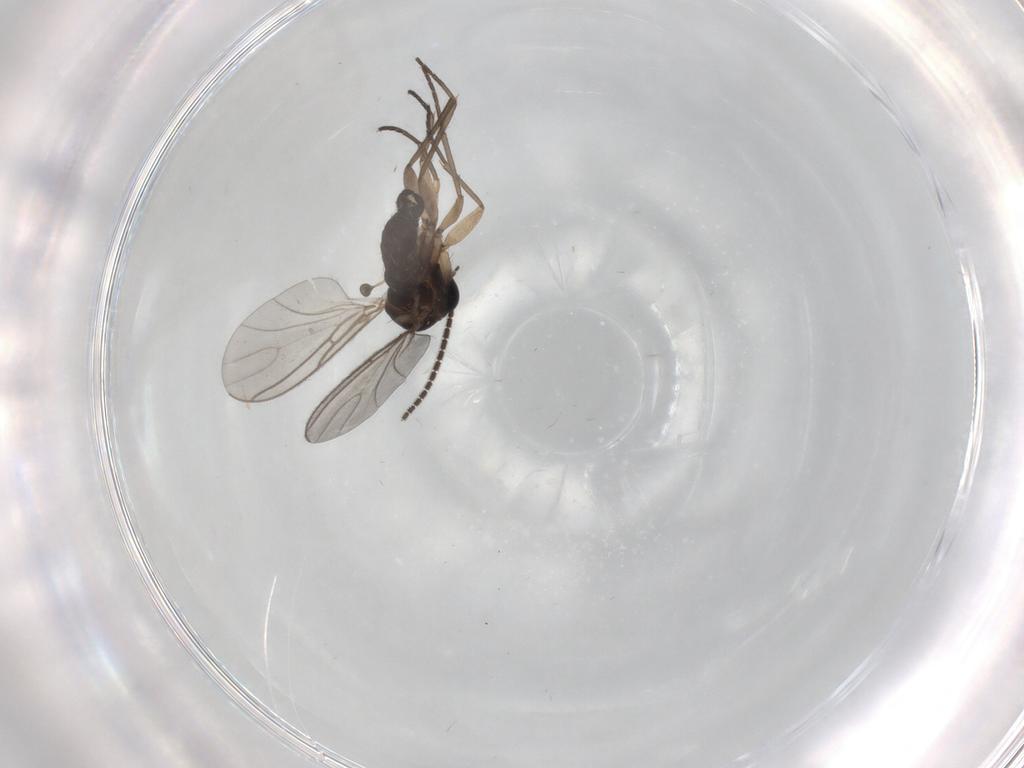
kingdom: Animalia
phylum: Arthropoda
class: Insecta
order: Diptera
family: Sciaridae
